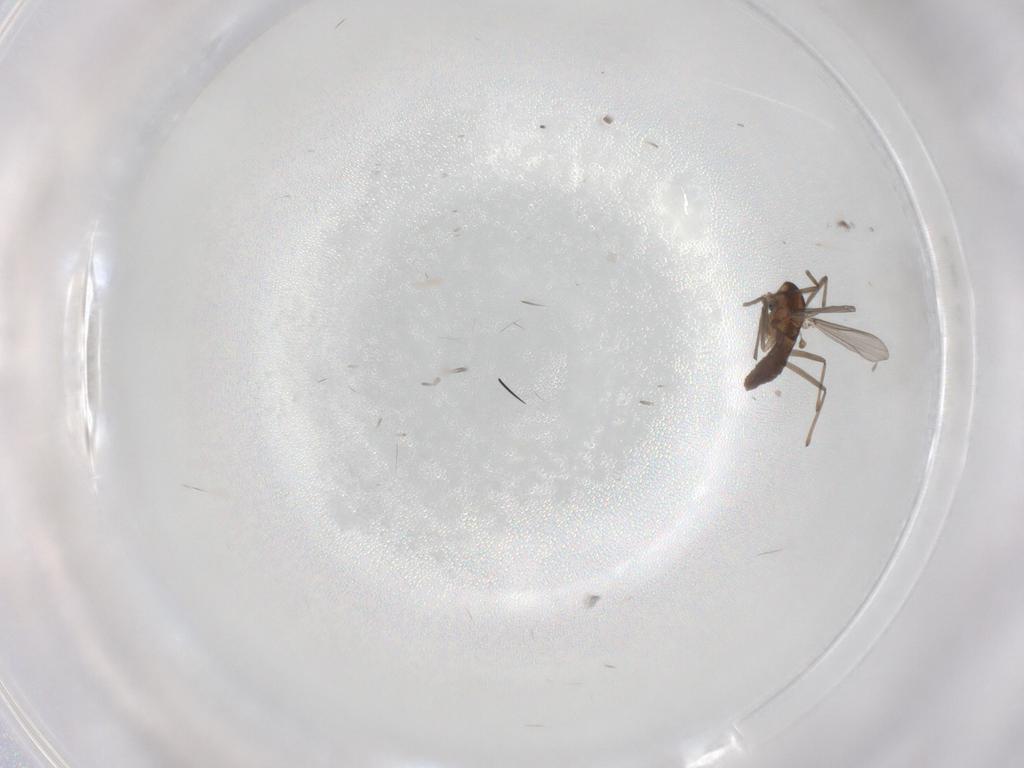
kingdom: Animalia
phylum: Arthropoda
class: Insecta
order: Diptera
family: Chironomidae
